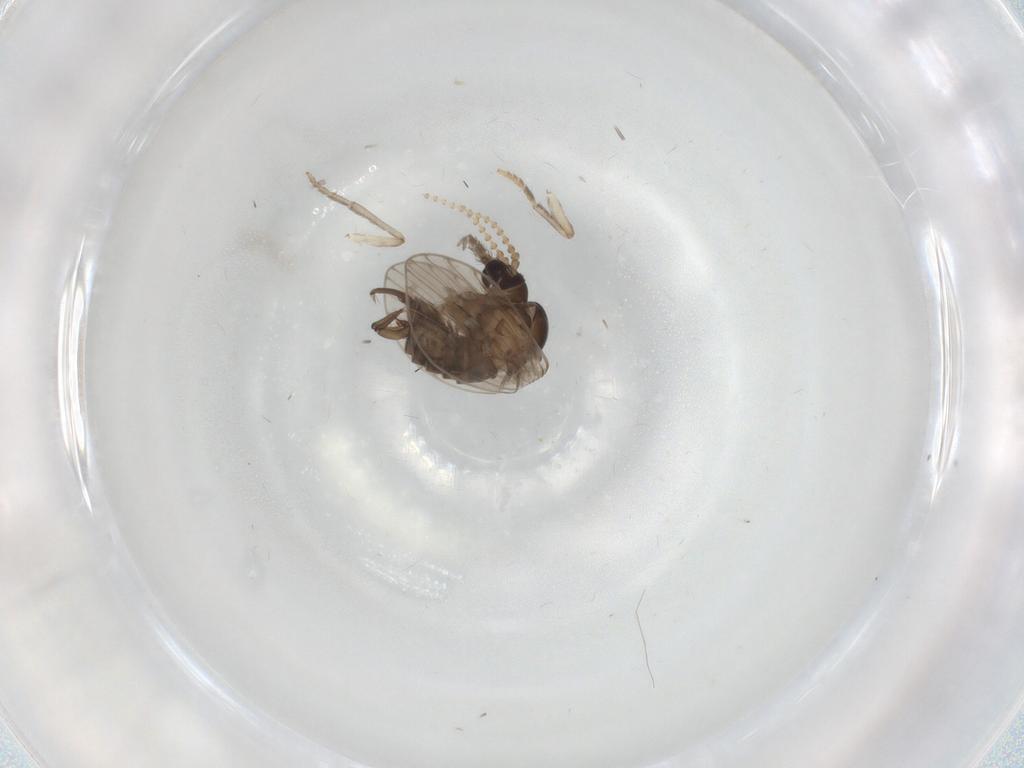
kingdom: Animalia
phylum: Arthropoda
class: Insecta
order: Diptera
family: Psychodidae
